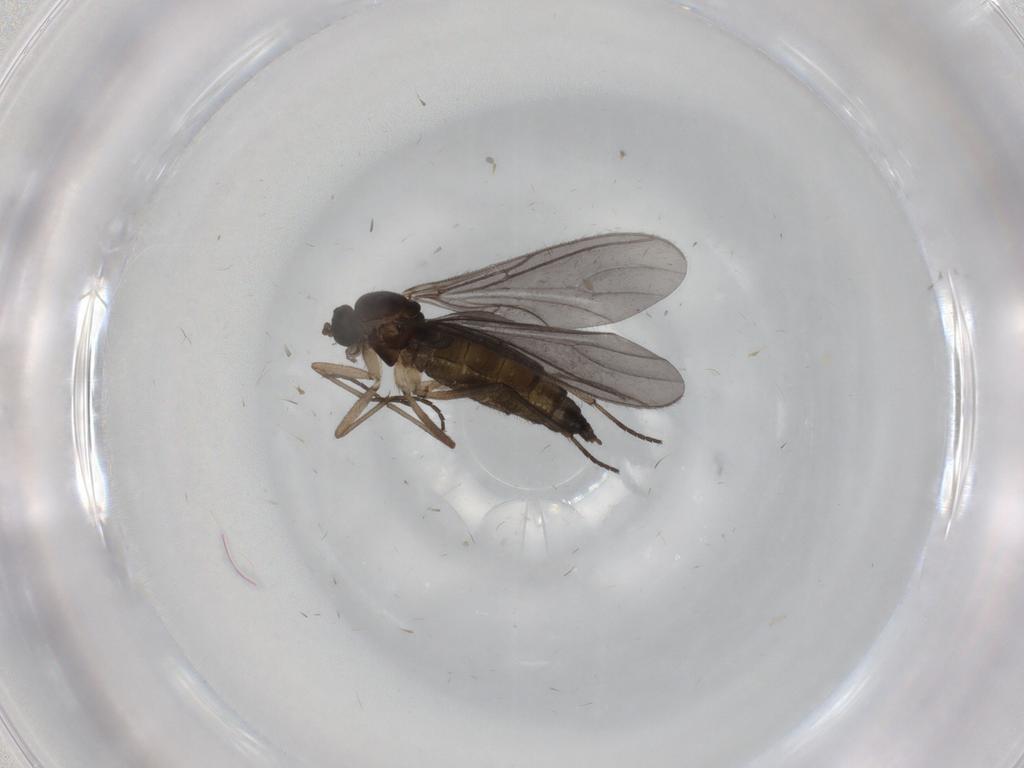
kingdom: Animalia
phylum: Arthropoda
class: Insecta
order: Diptera
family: Sciaridae
